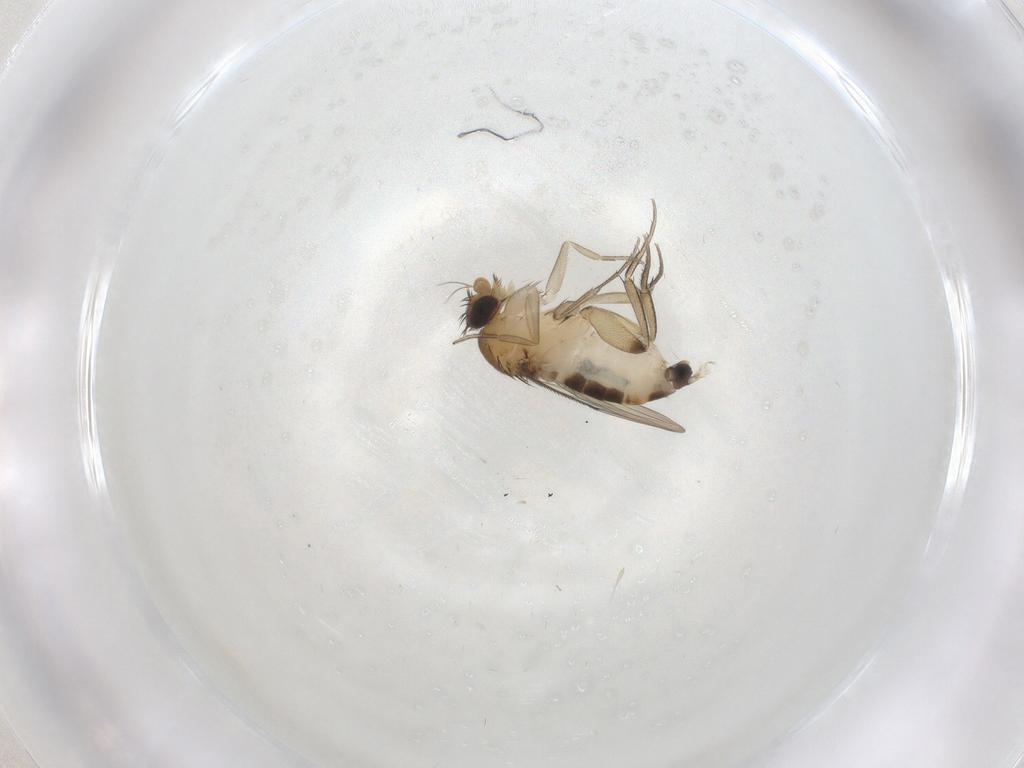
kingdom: Animalia
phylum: Arthropoda
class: Insecta
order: Diptera
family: Phoridae
